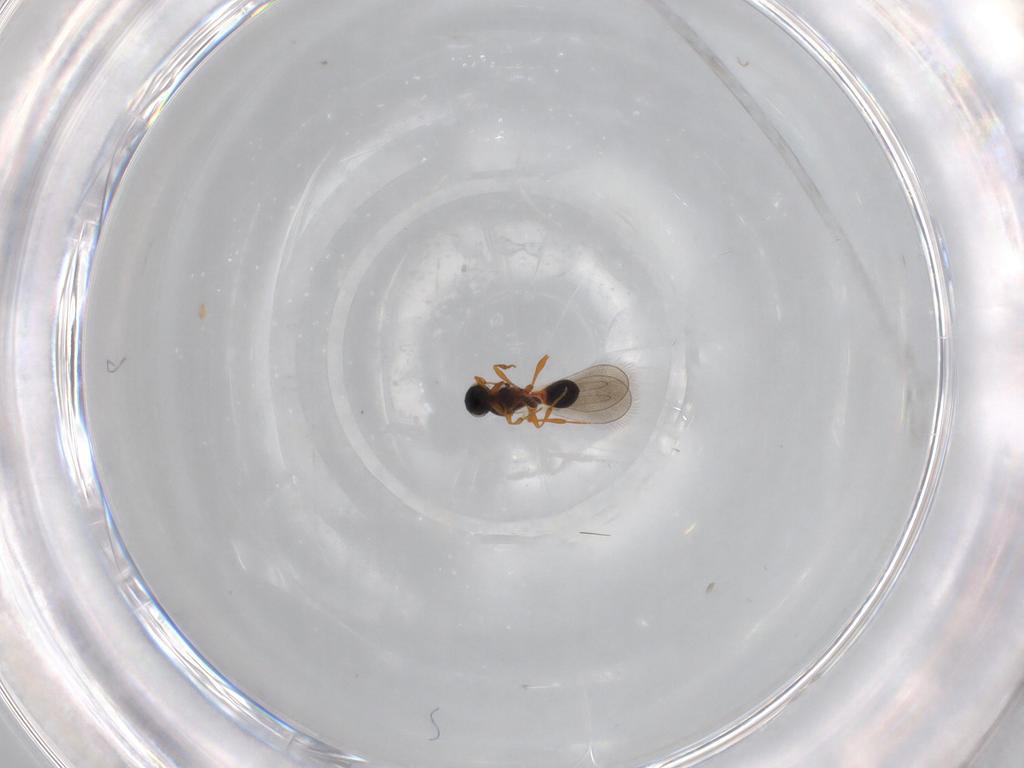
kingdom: Animalia
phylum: Arthropoda
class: Insecta
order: Hymenoptera
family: Platygastridae
